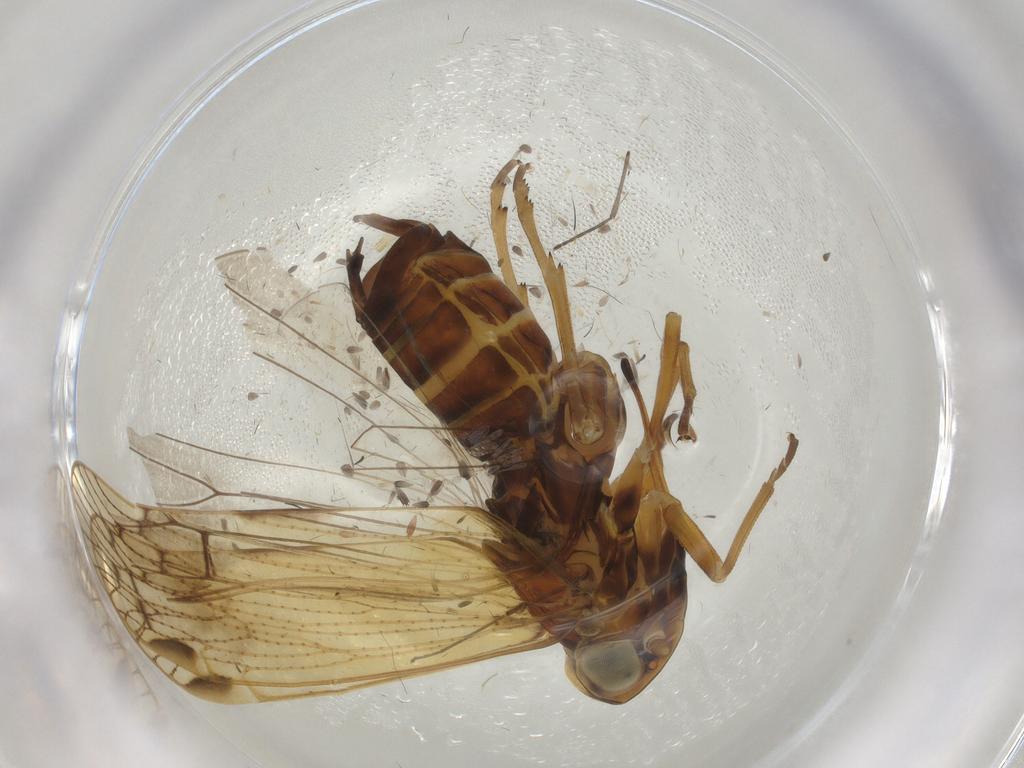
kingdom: Animalia
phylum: Arthropoda
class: Insecta
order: Hemiptera
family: Cixiidae
